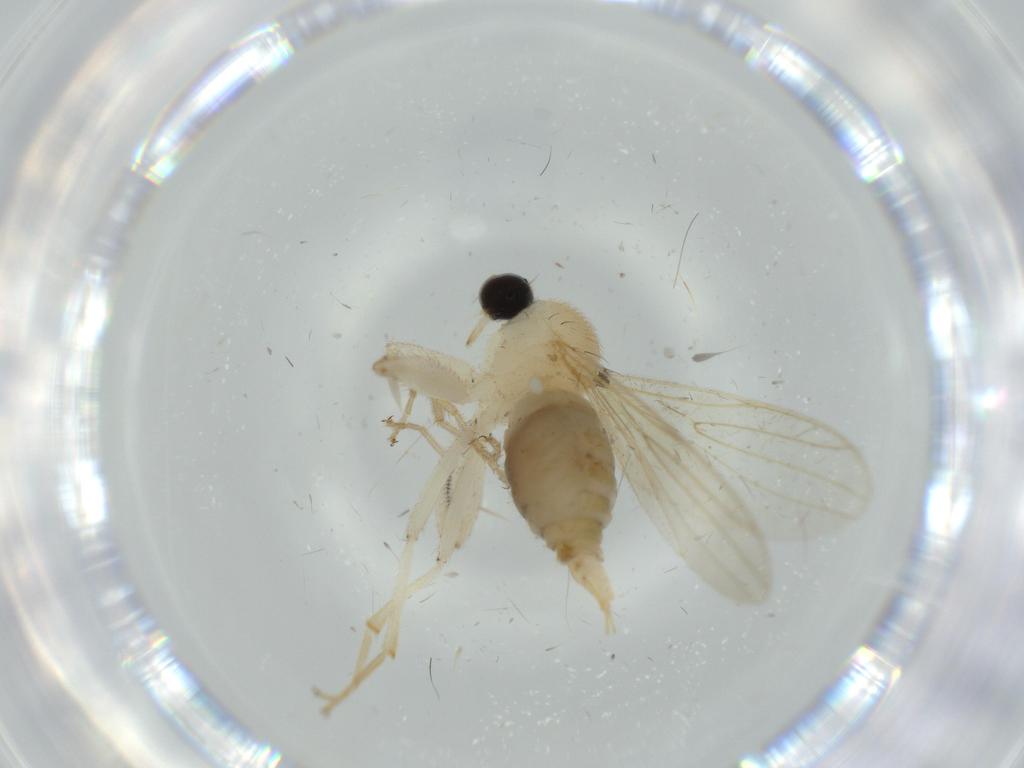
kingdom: Animalia
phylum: Arthropoda
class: Insecta
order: Diptera
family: Hybotidae
